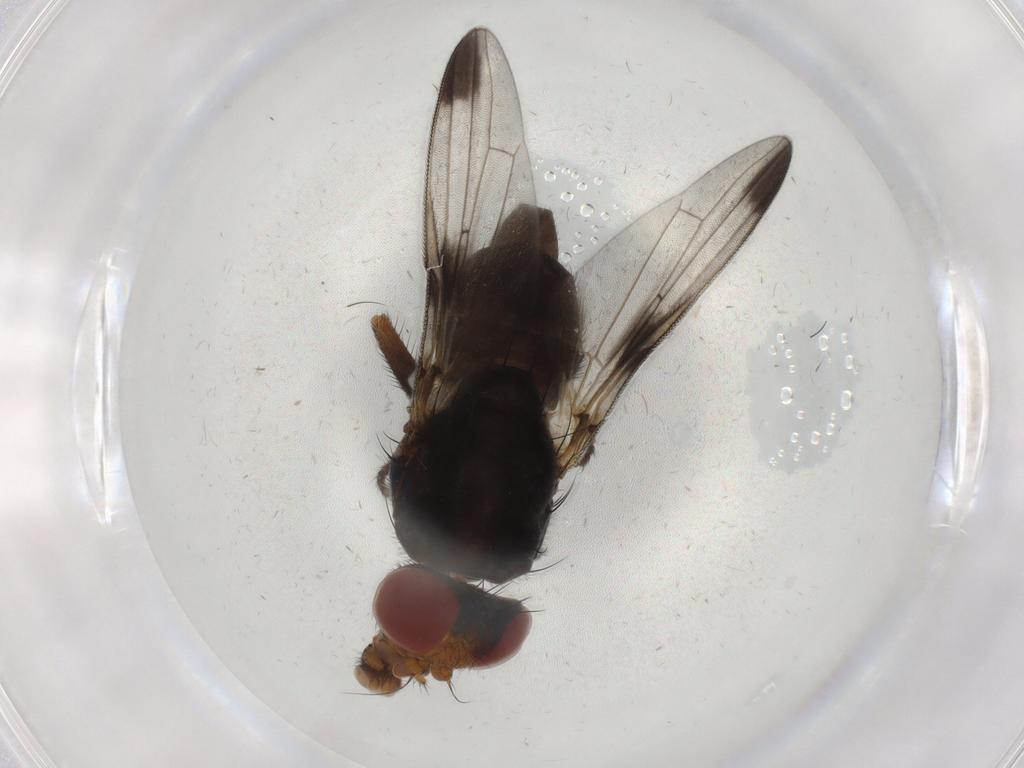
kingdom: Animalia
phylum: Arthropoda
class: Insecta
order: Diptera
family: Ulidiidae
